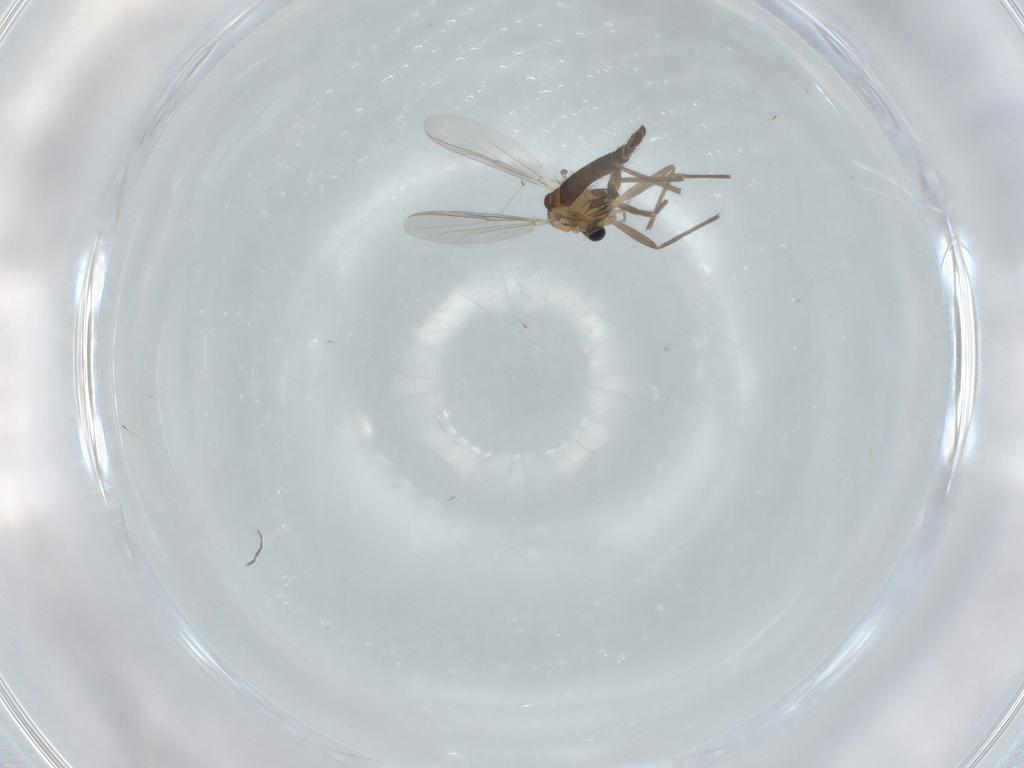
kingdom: Animalia
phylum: Arthropoda
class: Insecta
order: Diptera
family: Chironomidae
